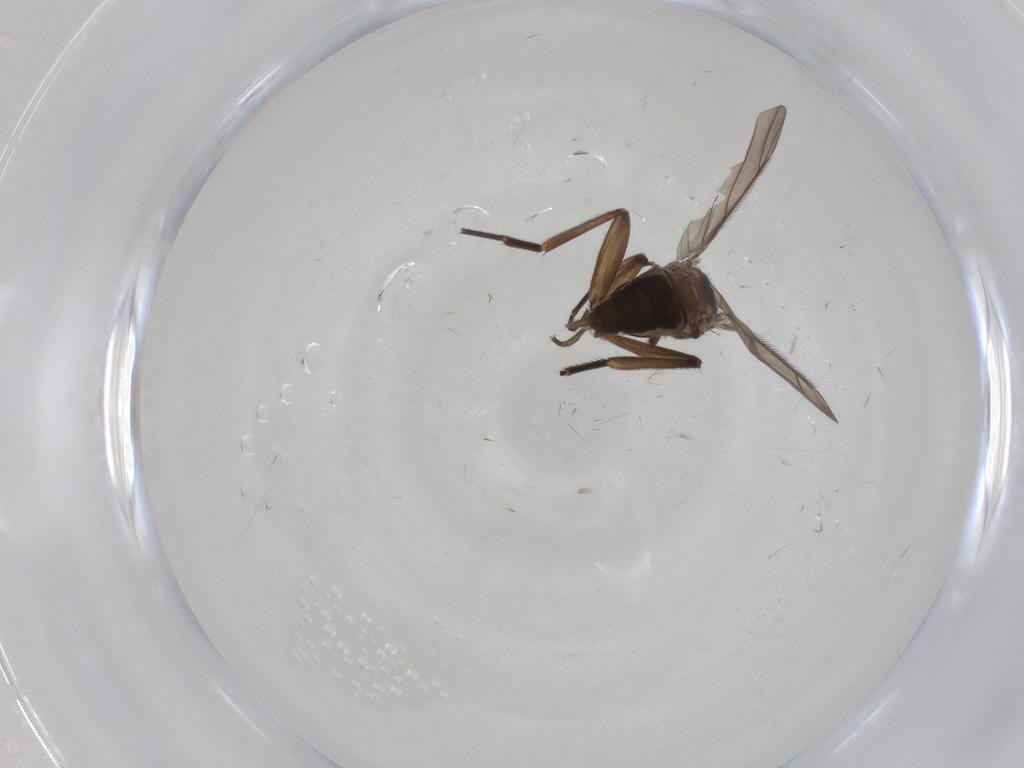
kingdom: Animalia
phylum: Arthropoda
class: Insecta
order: Diptera
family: Phoridae
